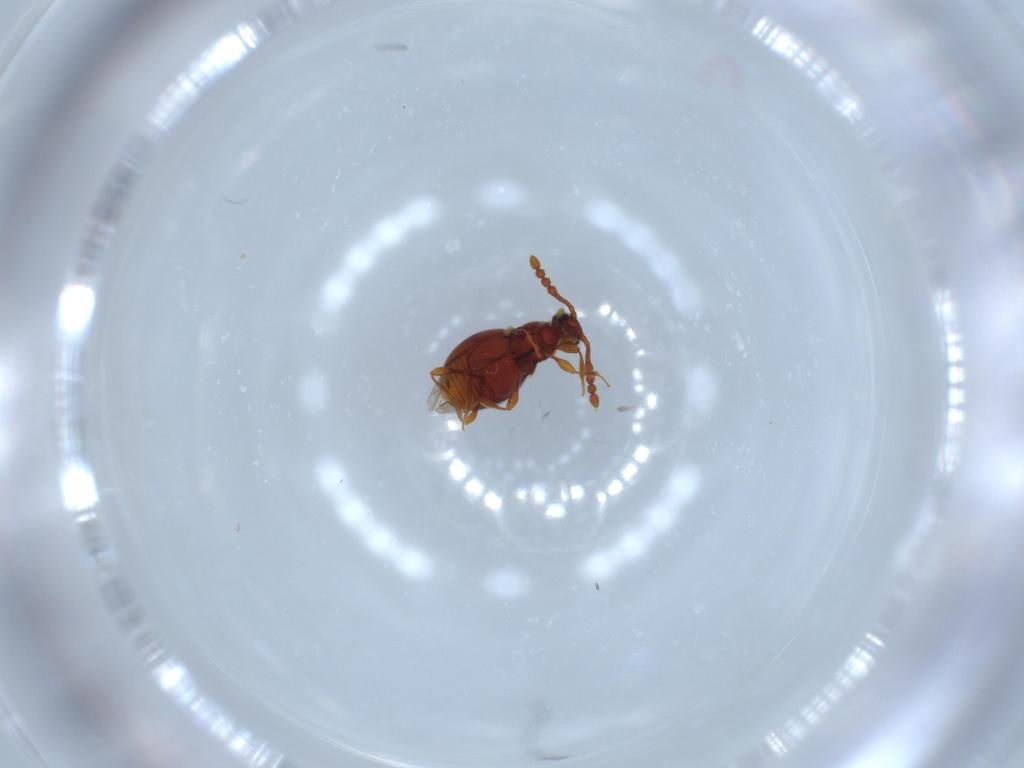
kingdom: Animalia
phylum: Arthropoda
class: Insecta
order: Coleoptera
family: Staphylinidae
